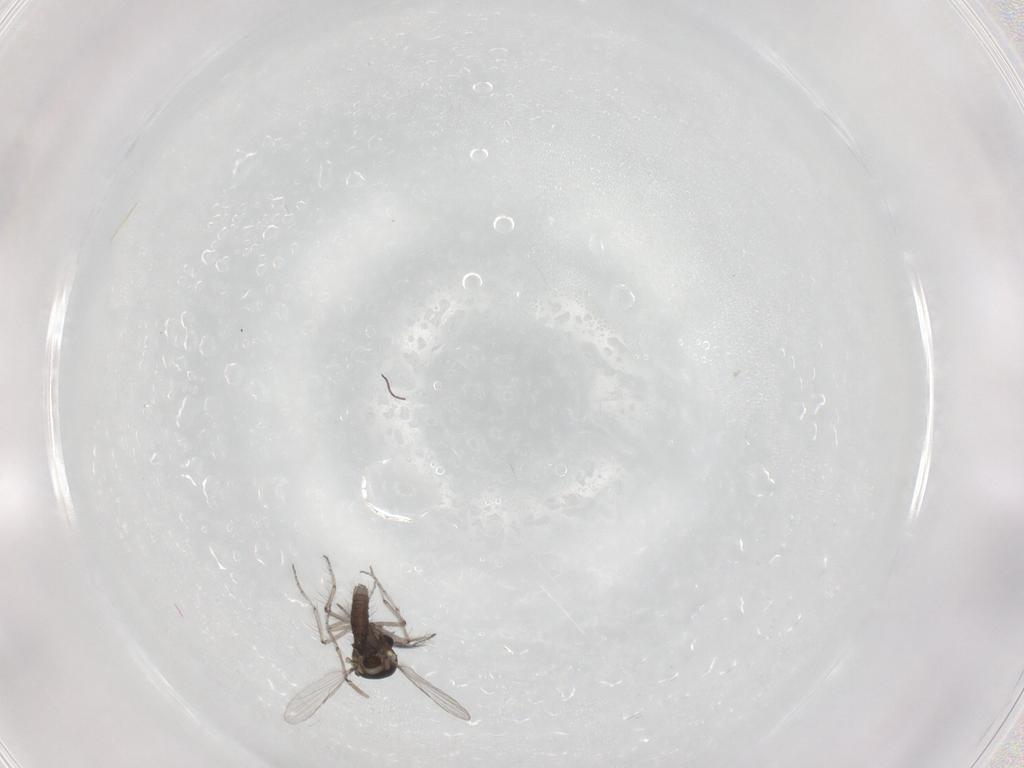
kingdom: Animalia
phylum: Arthropoda
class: Insecta
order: Diptera
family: Ceratopogonidae
